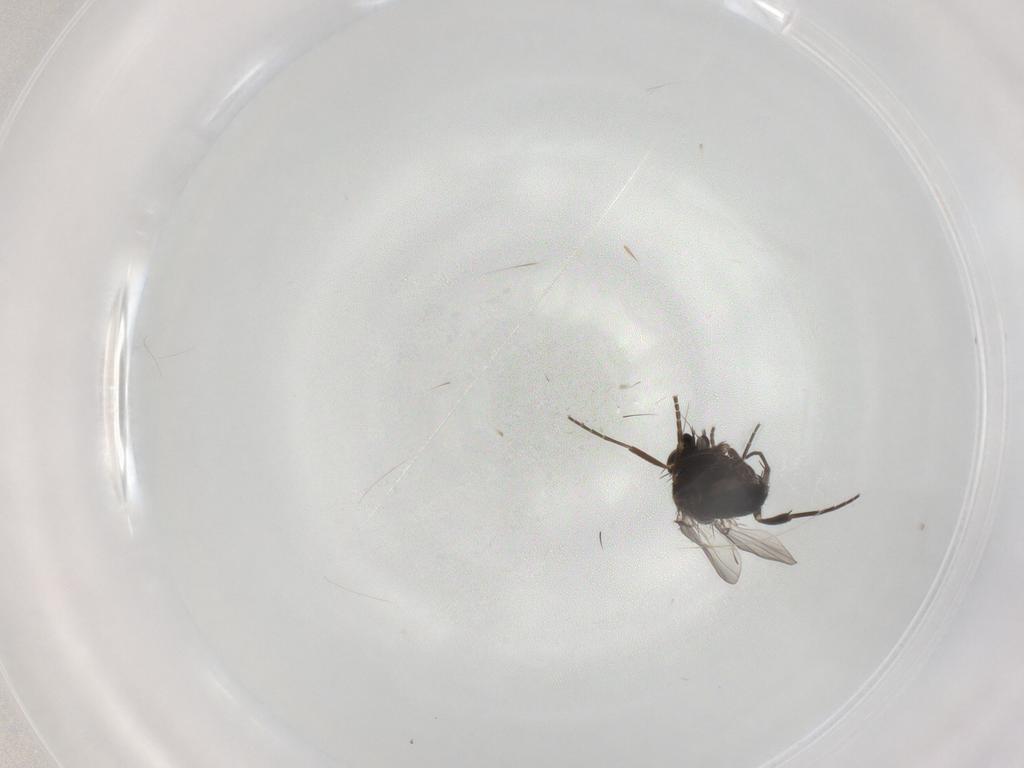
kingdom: Animalia
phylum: Arthropoda
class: Insecta
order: Diptera
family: Phoridae
